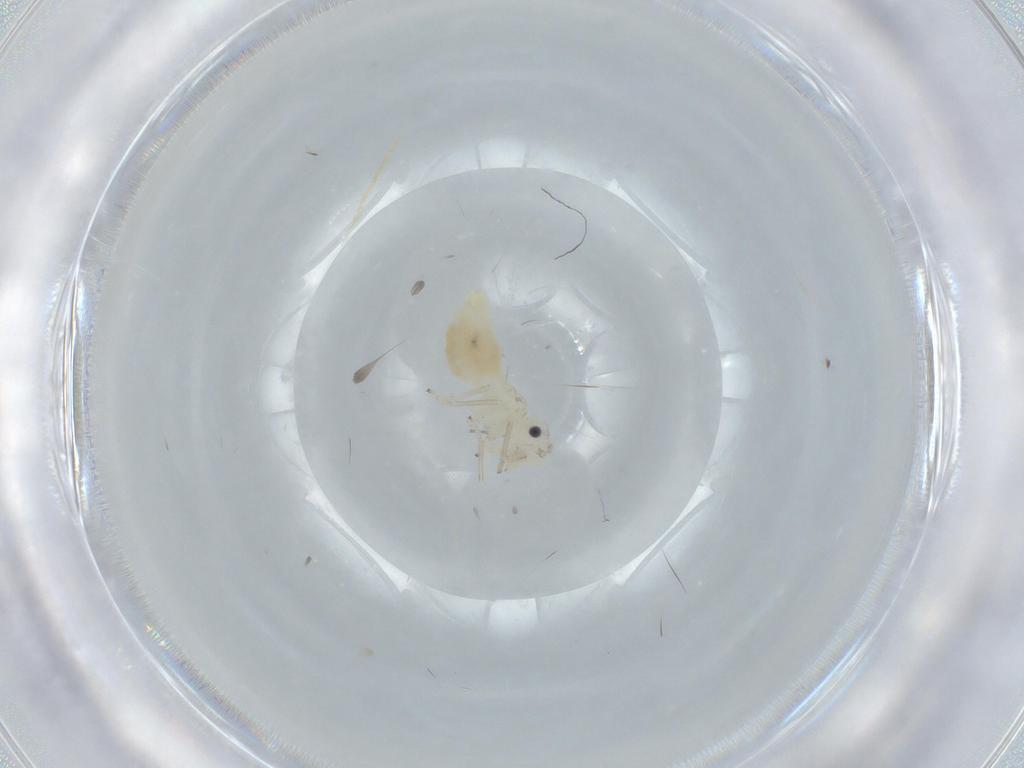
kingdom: Animalia
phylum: Arthropoda
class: Insecta
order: Psocodea
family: Caeciliusidae
